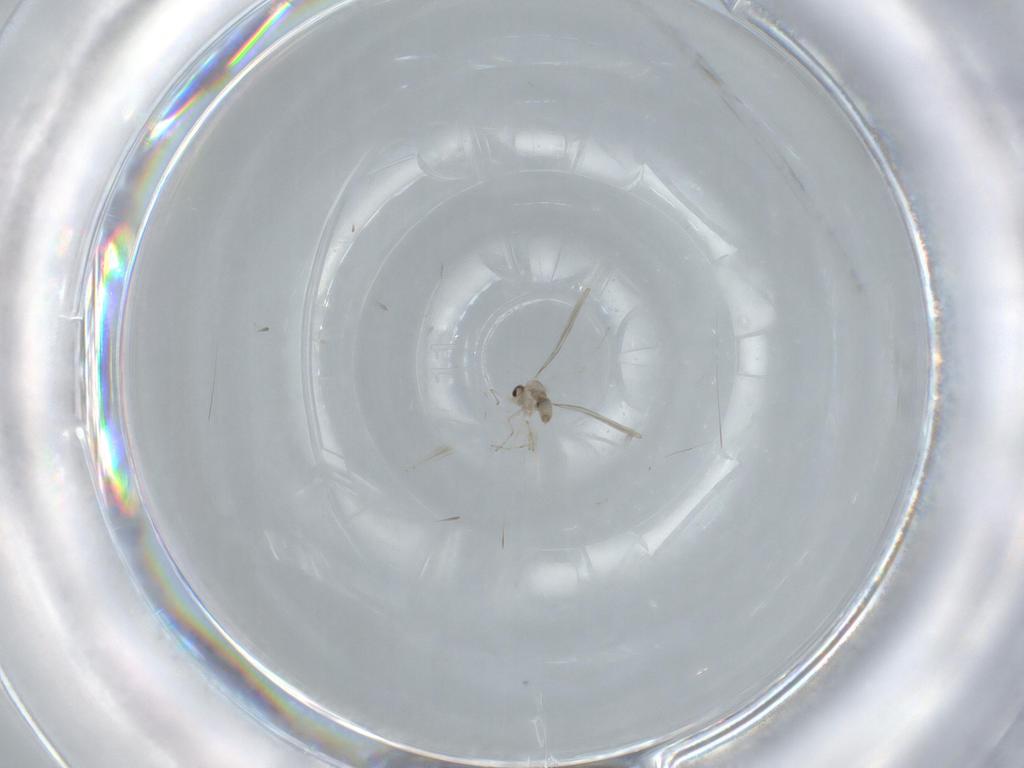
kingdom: Animalia
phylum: Arthropoda
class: Insecta
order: Diptera
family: Cecidomyiidae
